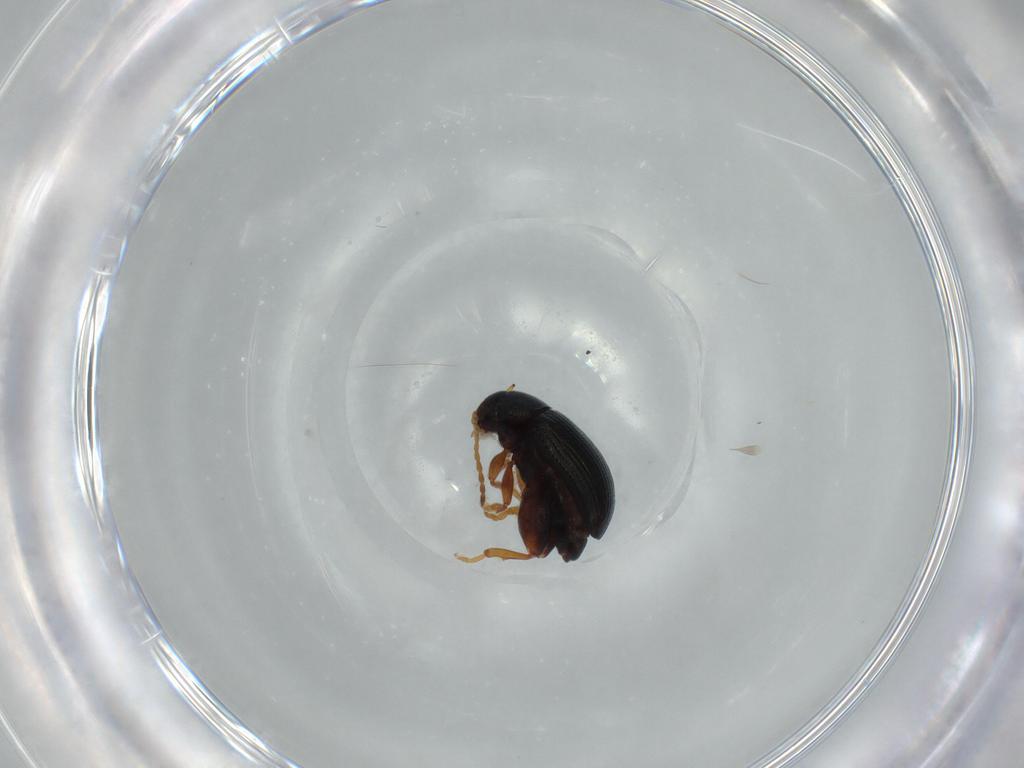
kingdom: Animalia
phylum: Arthropoda
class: Insecta
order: Coleoptera
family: Chrysomelidae
